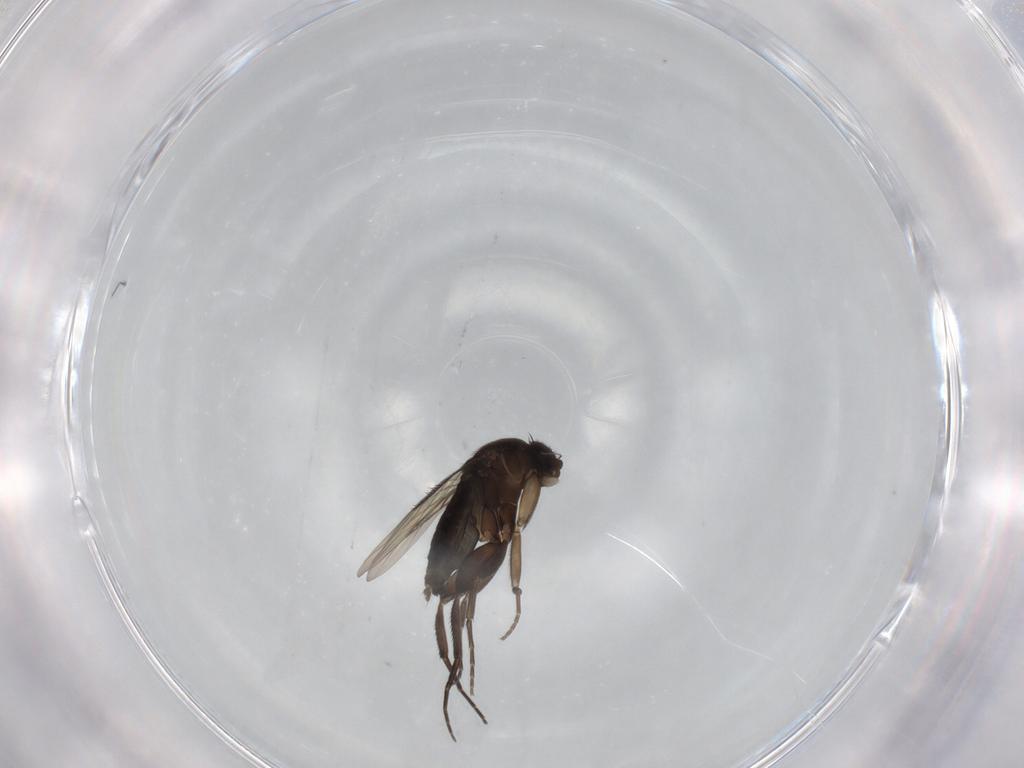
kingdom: Animalia
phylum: Arthropoda
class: Insecta
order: Diptera
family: Phoridae
